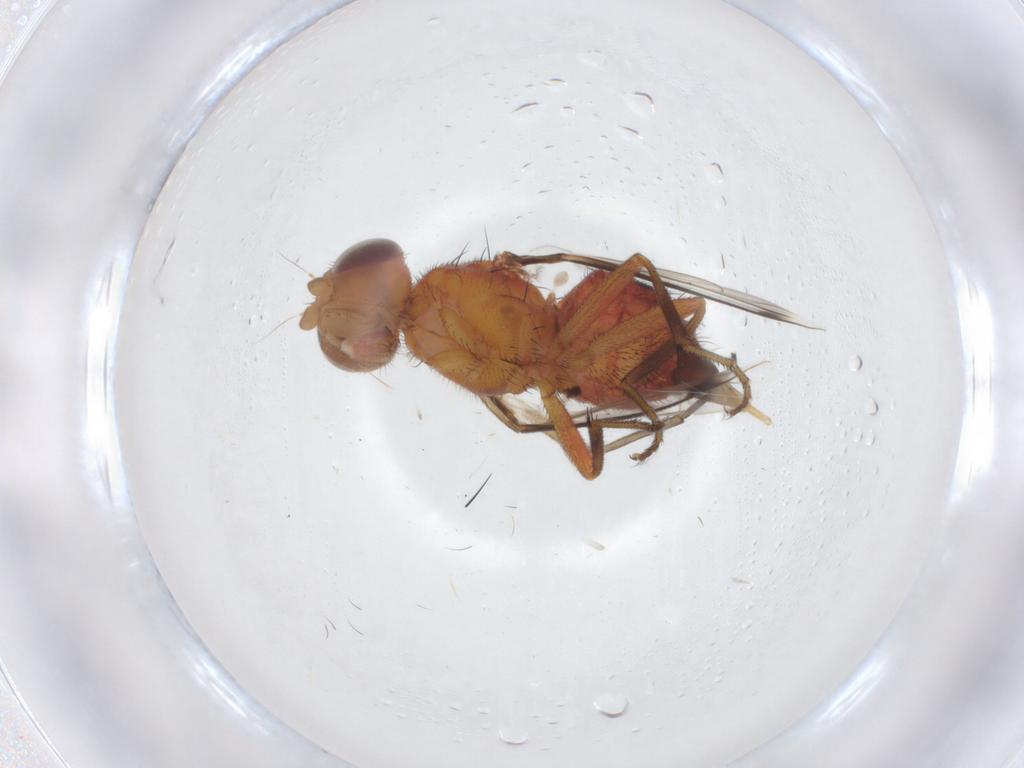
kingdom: Animalia
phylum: Arthropoda
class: Insecta
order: Diptera
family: Sciaridae
